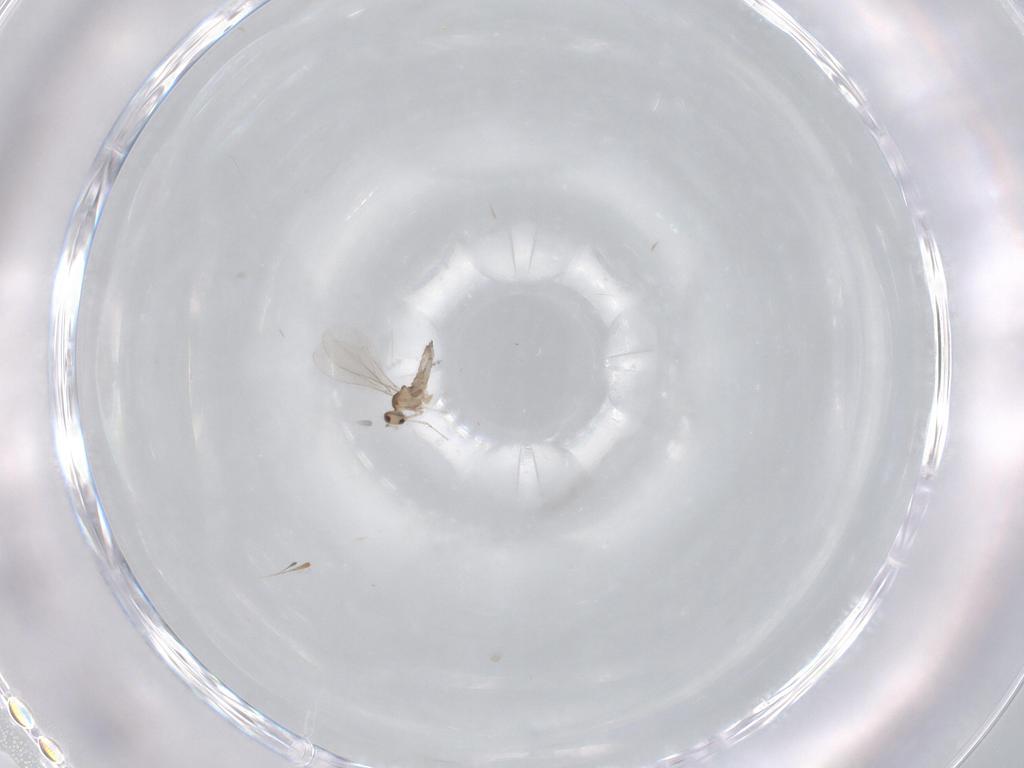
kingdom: Animalia
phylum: Arthropoda
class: Insecta
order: Diptera
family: Cecidomyiidae
